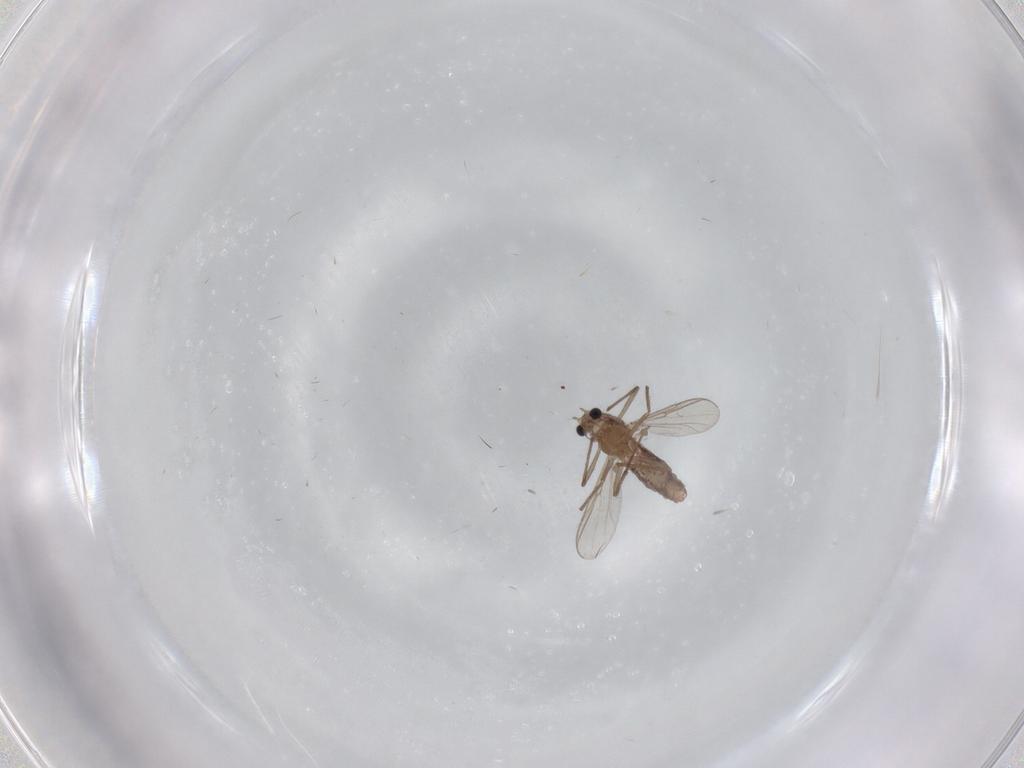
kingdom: Animalia
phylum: Arthropoda
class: Insecta
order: Diptera
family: Chironomidae
